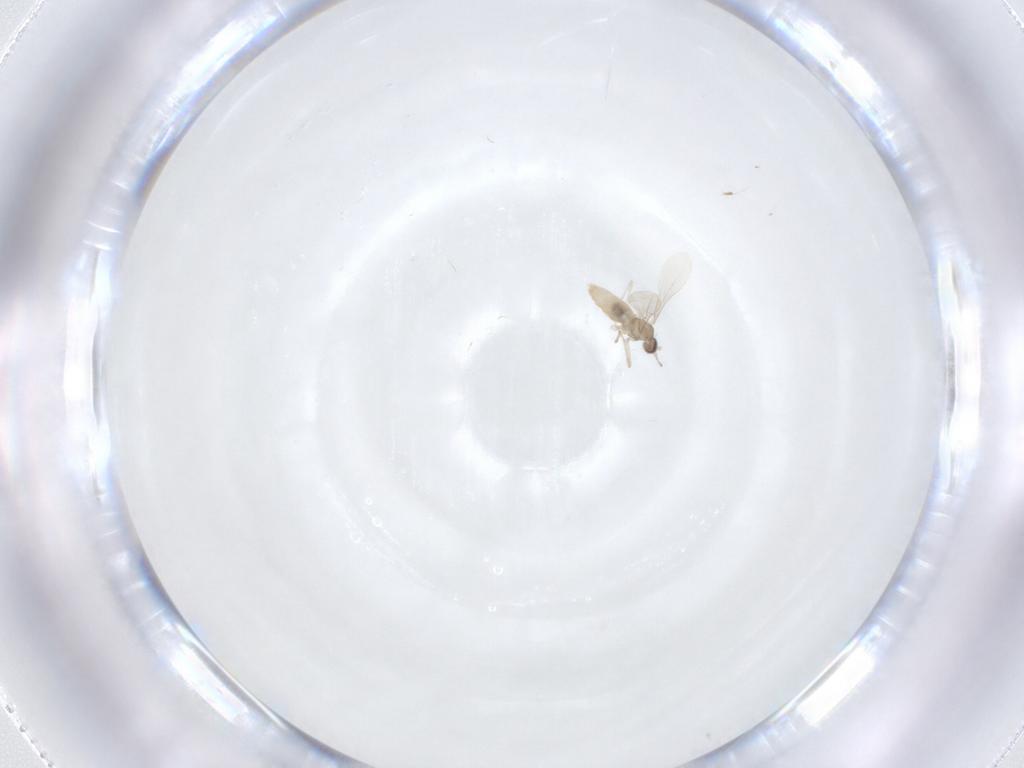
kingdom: Animalia
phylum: Arthropoda
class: Insecta
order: Diptera
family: Cecidomyiidae
